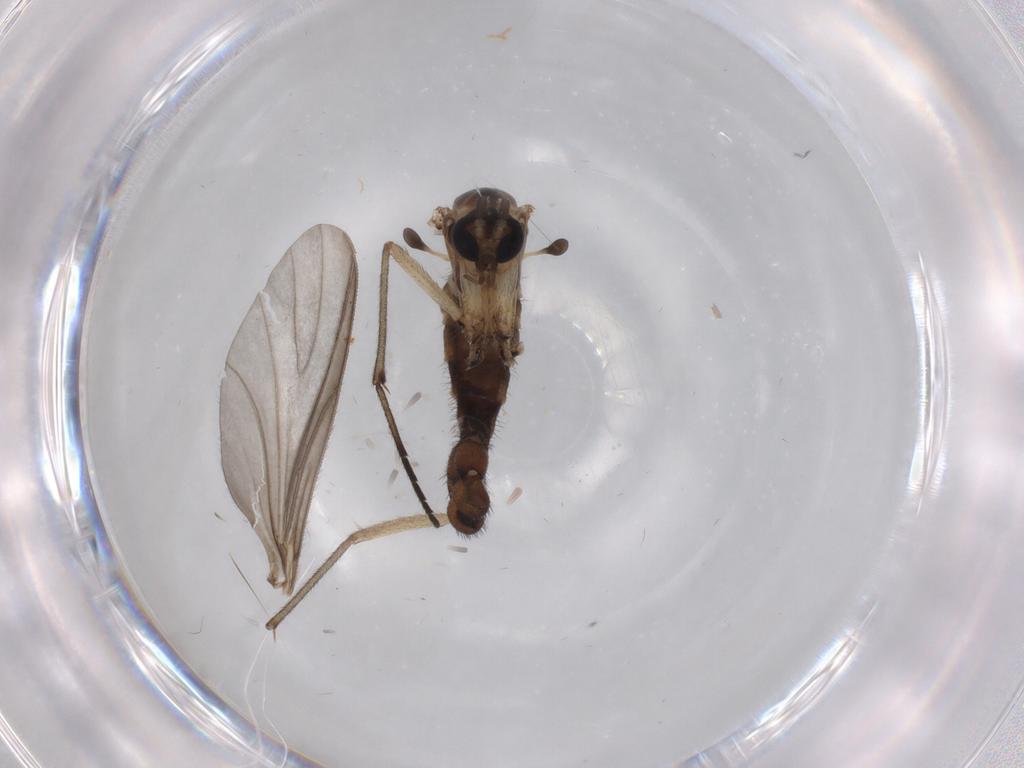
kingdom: Animalia
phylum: Arthropoda
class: Insecta
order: Diptera
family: Sciaridae
